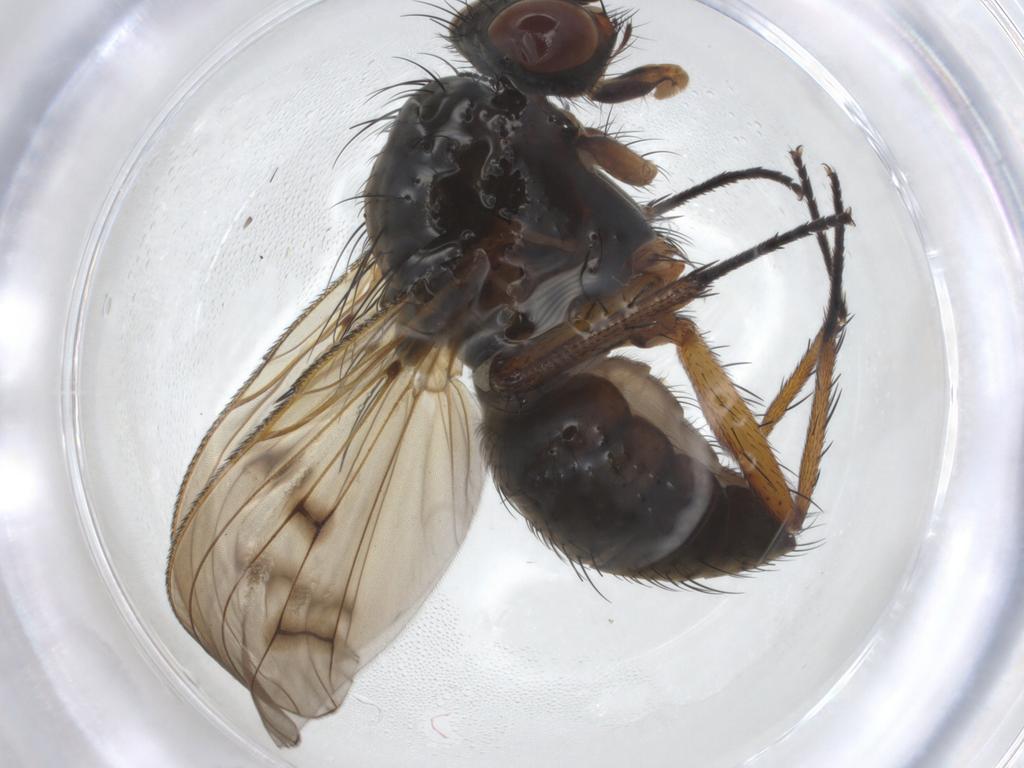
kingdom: Animalia
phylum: Arthropoda
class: Insecta
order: Diptera
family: Anthomyiidae
